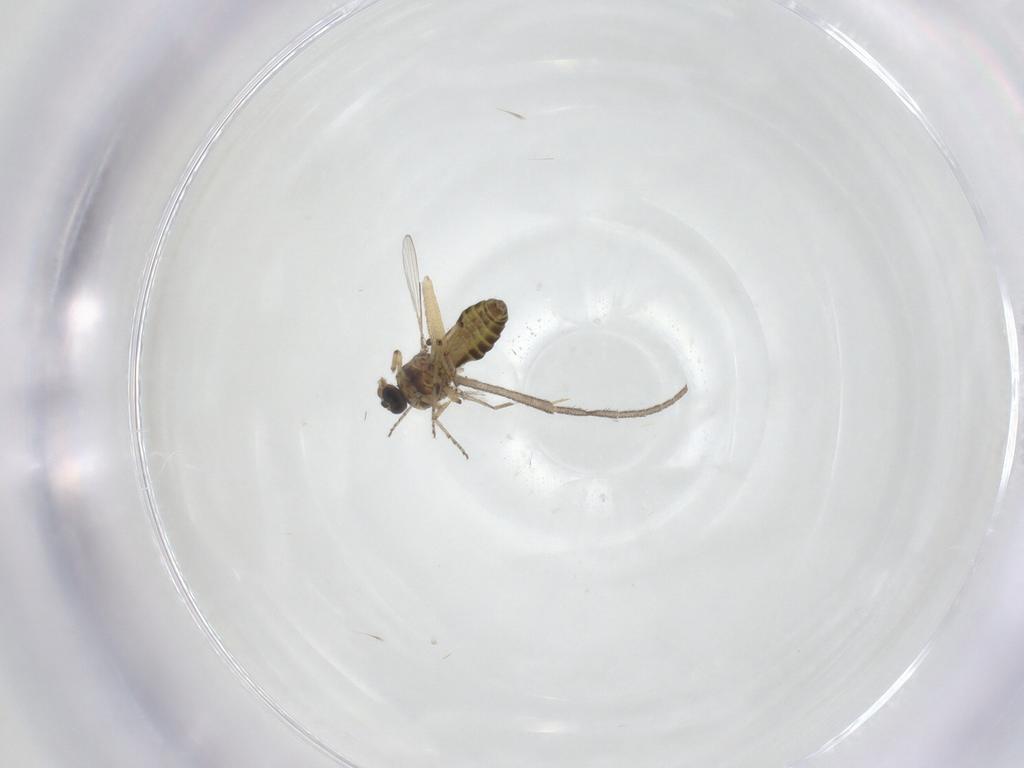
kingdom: Animalia
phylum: Arthropoda
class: Insecta
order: Diptera
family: Ceratopogonidae
